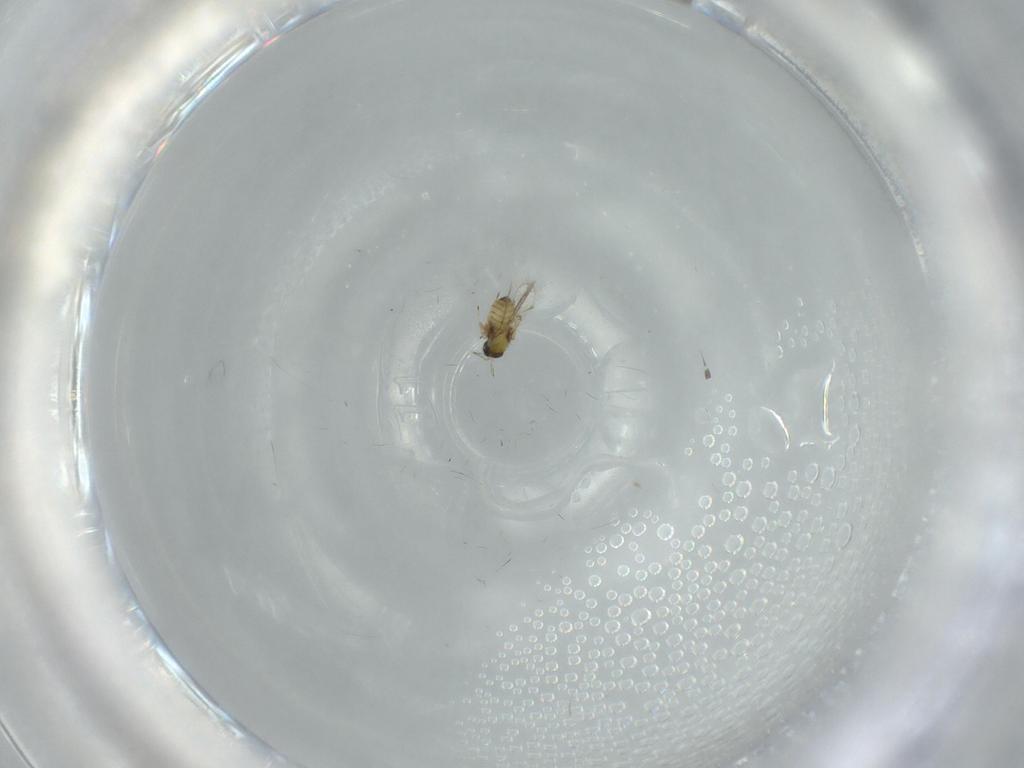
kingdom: Animalia
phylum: Arthropoda
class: Insecta
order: Hymenoptera
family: Trichogrammatidae
